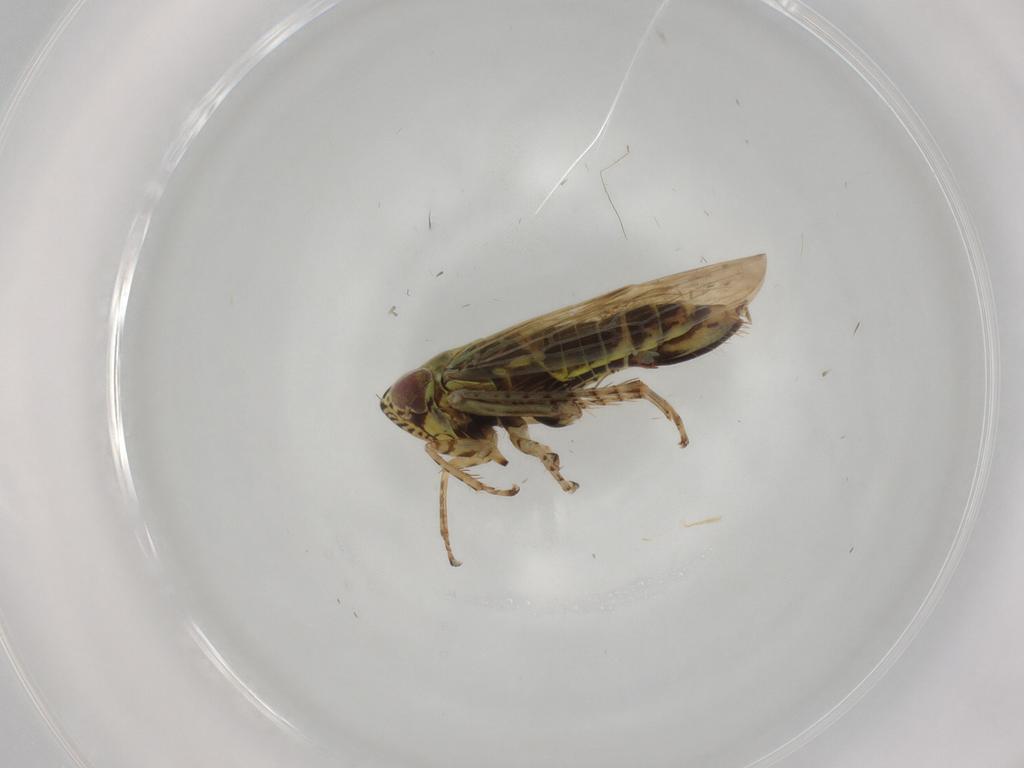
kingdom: Animalia
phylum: Arthropoda
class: Insecta
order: Hemiptera
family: Cicadellidae
